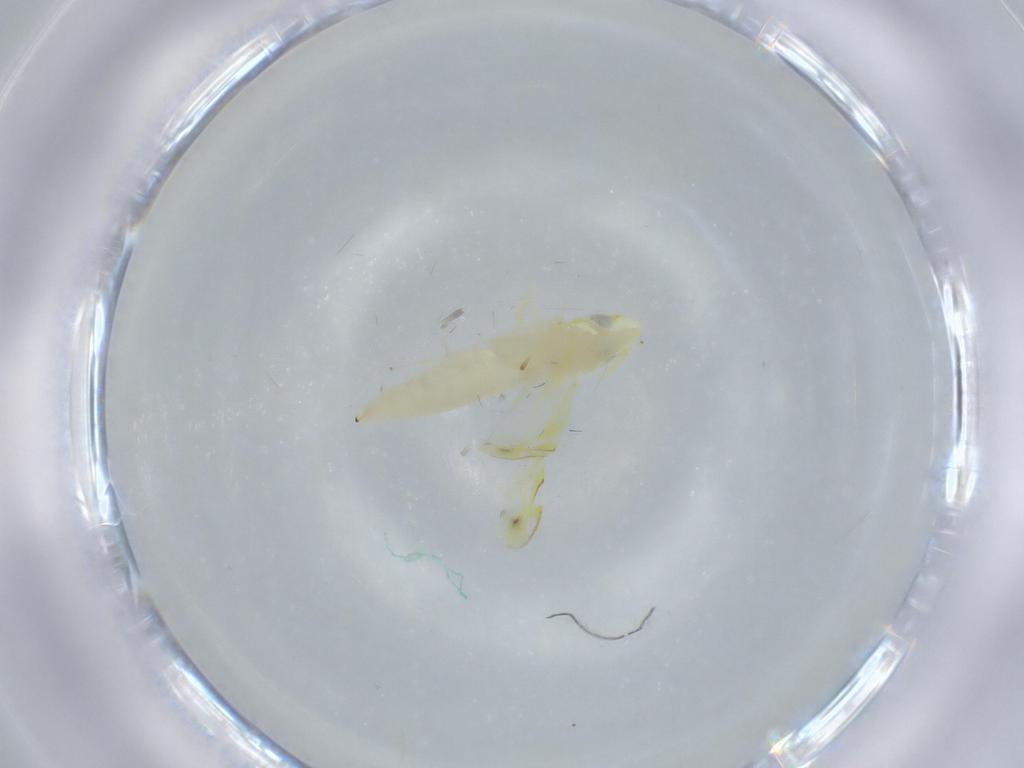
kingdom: Animalia
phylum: Arthropoda
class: Insecta
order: Hemiptera
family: Cicadellidae
